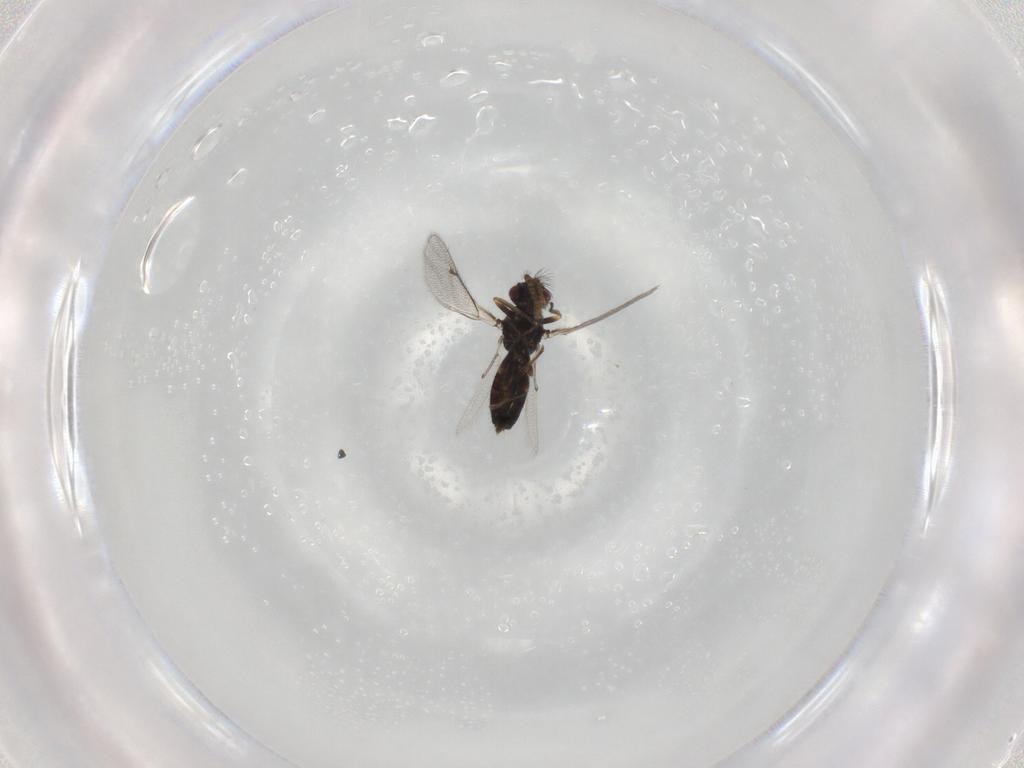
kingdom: Animalia
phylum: Arthropoda
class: Insecta
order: Hymenoptera
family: Eulophidae
